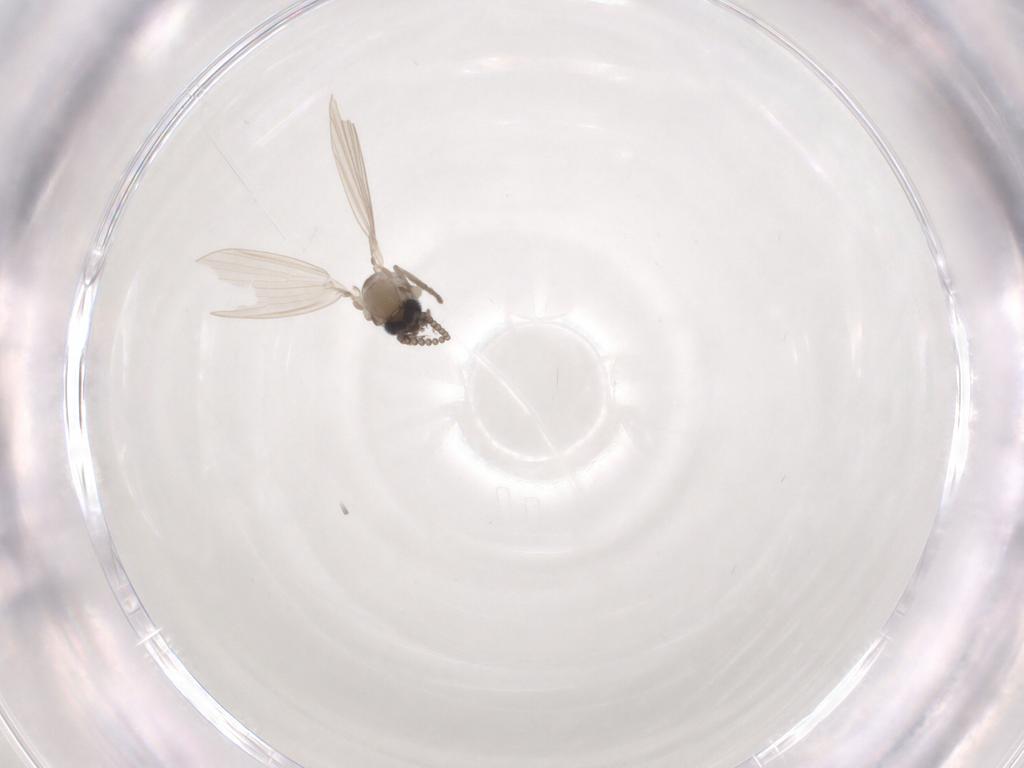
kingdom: Animalia
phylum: Arthropoda
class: Insecta
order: Diptera
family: Psychodidae
